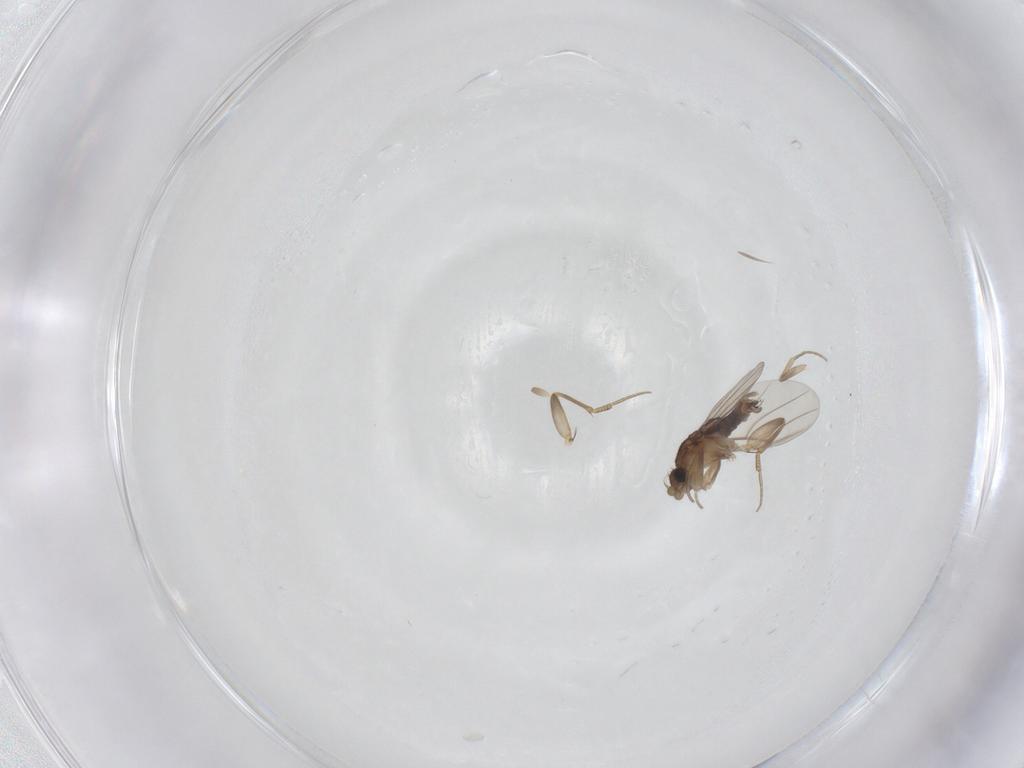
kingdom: Animalia
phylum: Arthropoda
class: Insecta
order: Diptera
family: Phoridae
